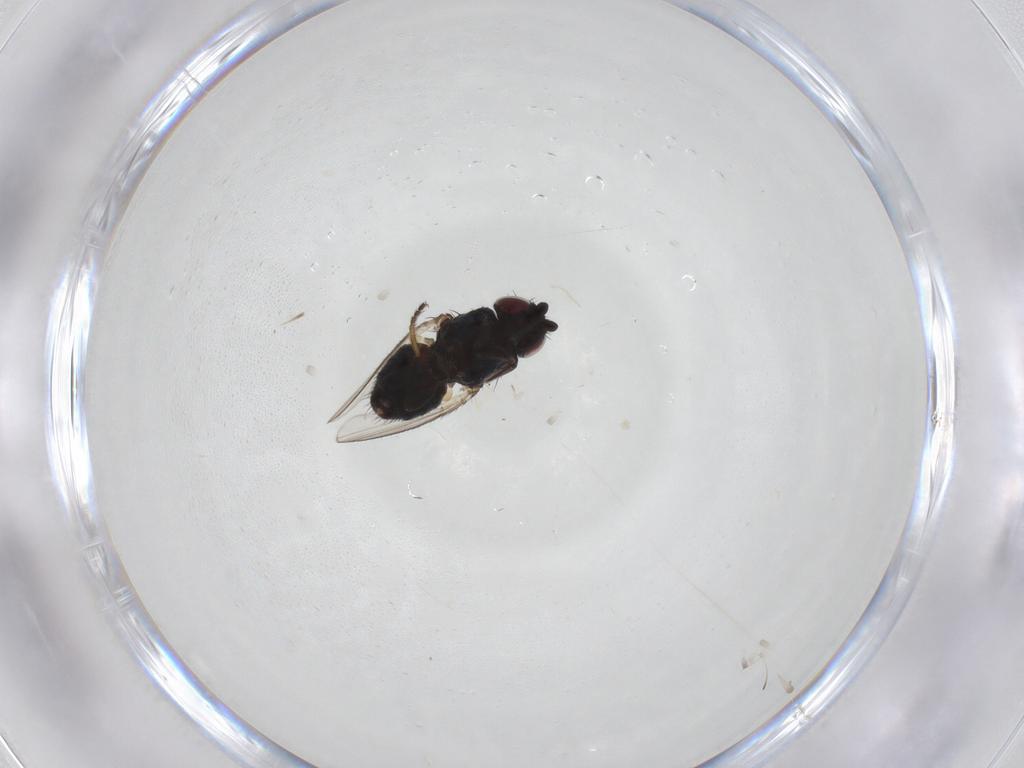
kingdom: Animalia
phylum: Arthropoda
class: Insecta
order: Diptera
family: Milichiidae
